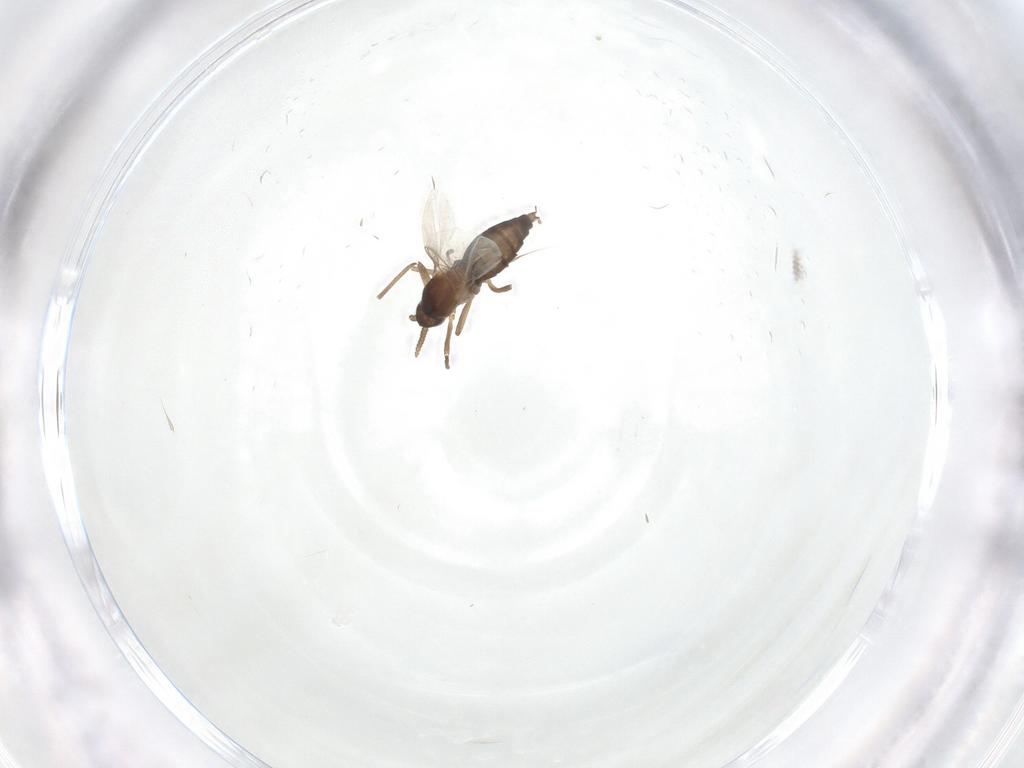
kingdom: Animalia
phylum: Arthropoda
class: Insecta
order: Diptera
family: Cecidomyiidae
